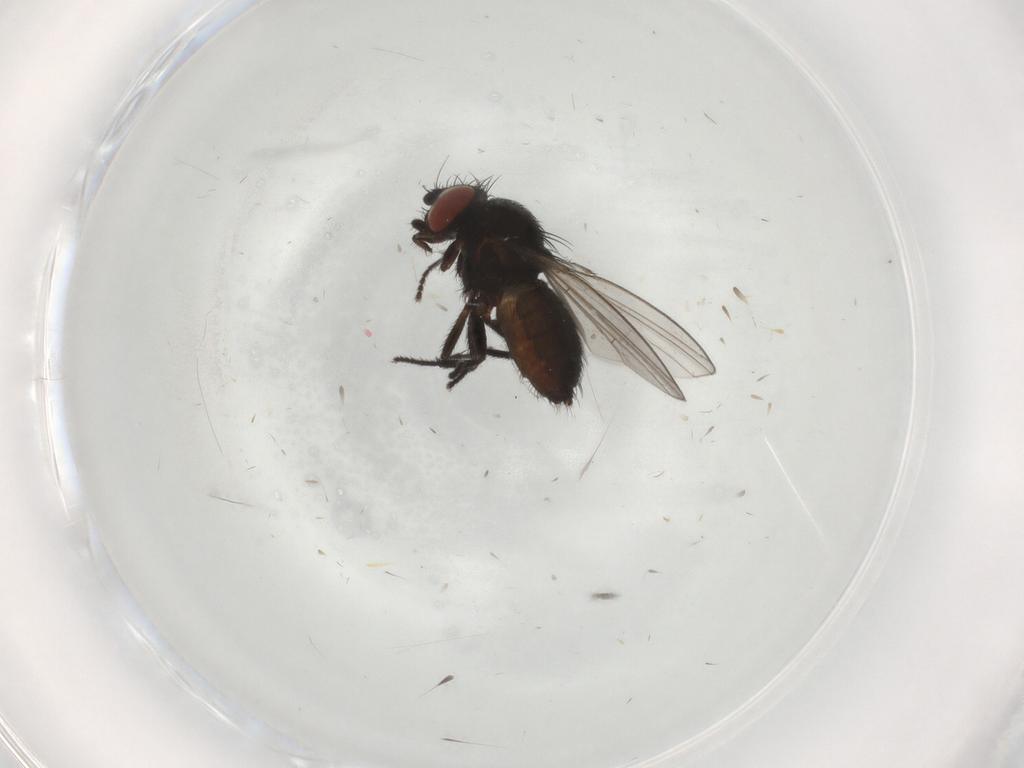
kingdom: Animalia
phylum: Arthropoda
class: Insecta
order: Diptera
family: Milichiidae
